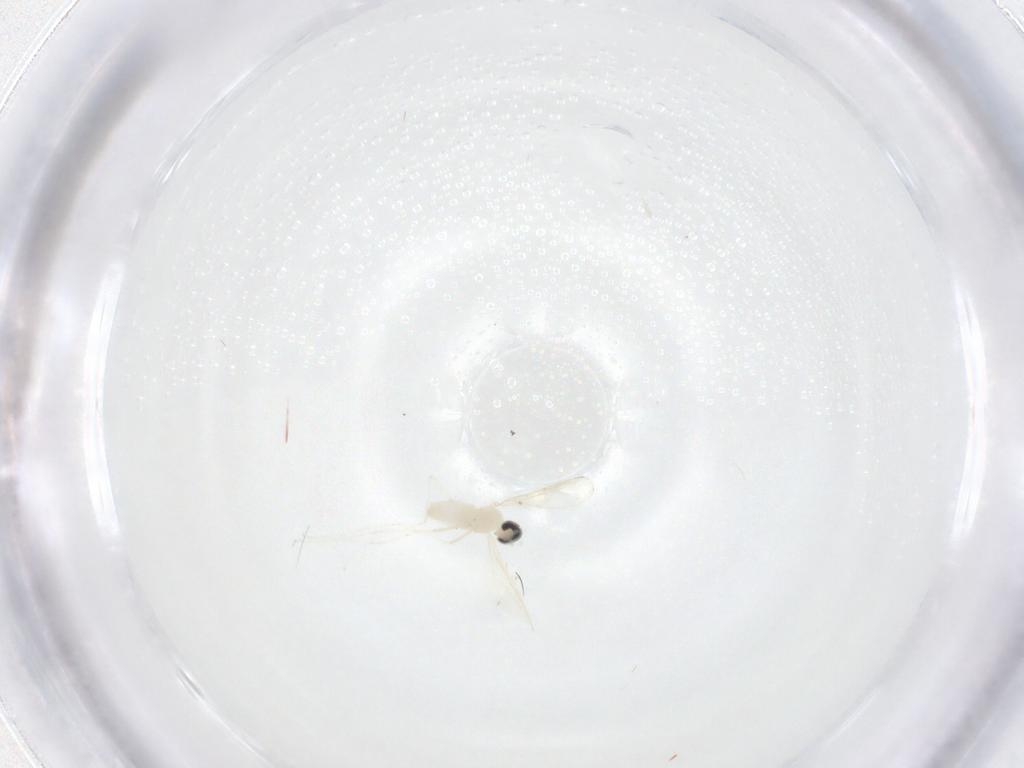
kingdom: Animalia
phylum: Arthropoda
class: Insecta
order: Diptera
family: Cecidomyiidae
